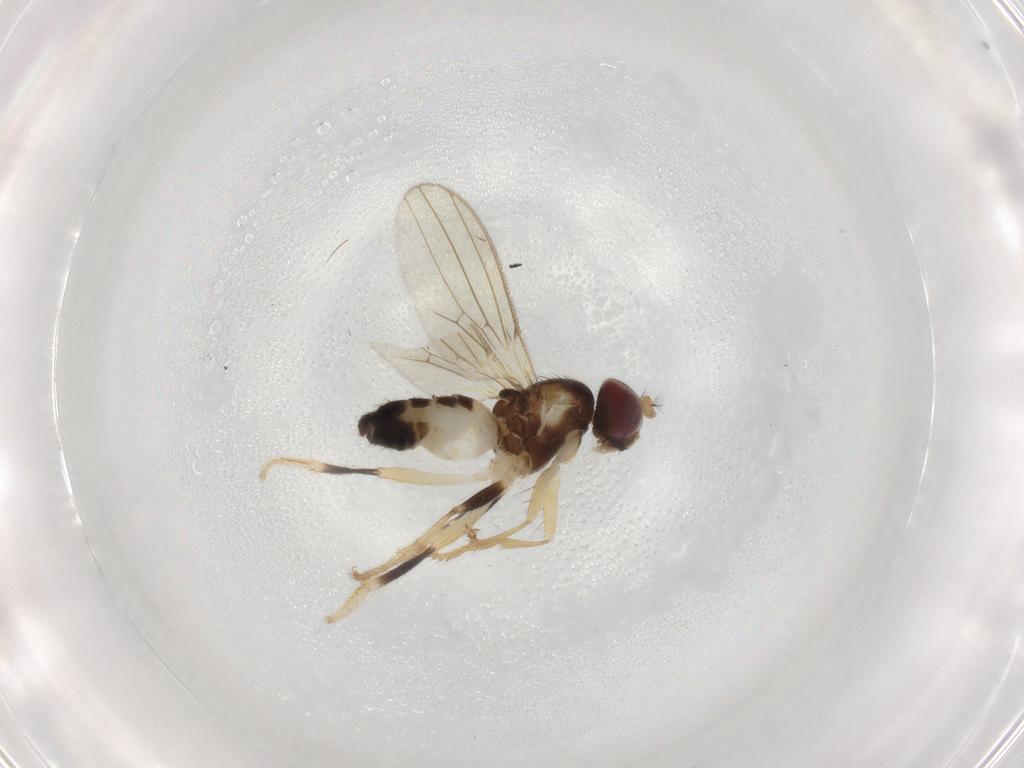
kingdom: Animalia
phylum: Arthropoda
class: Insecta
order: Diptera
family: Periscelididae
